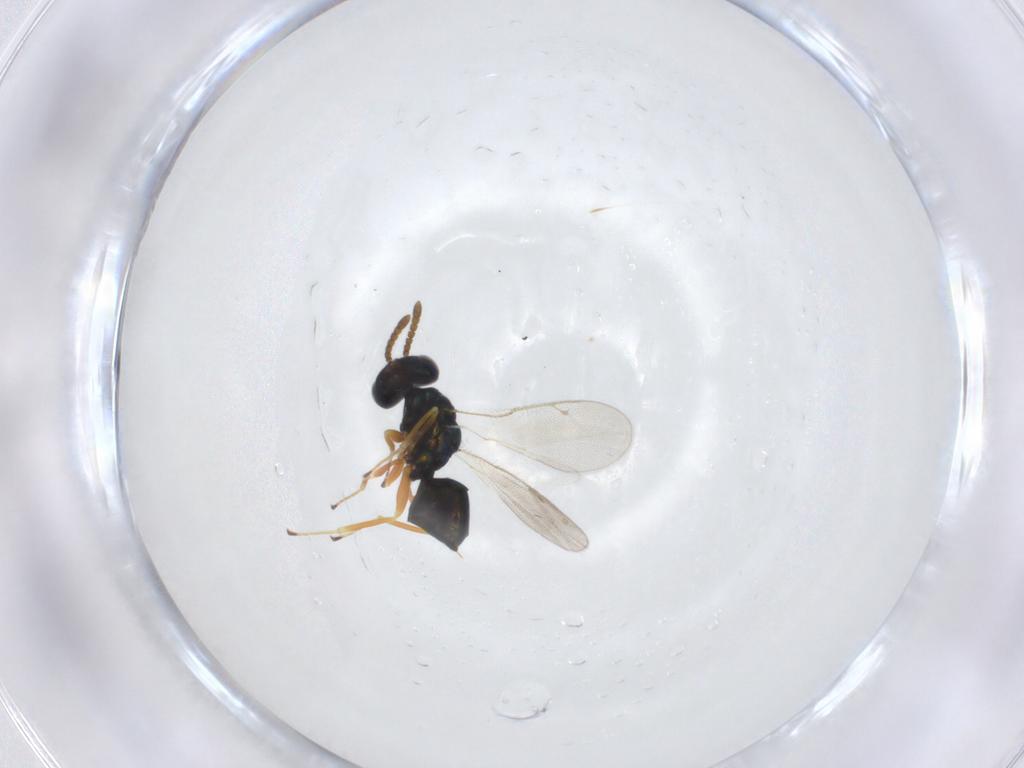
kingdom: Animalia
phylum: Arthropoda
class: Insecta
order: Hymenoptera
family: Pteromalidae
